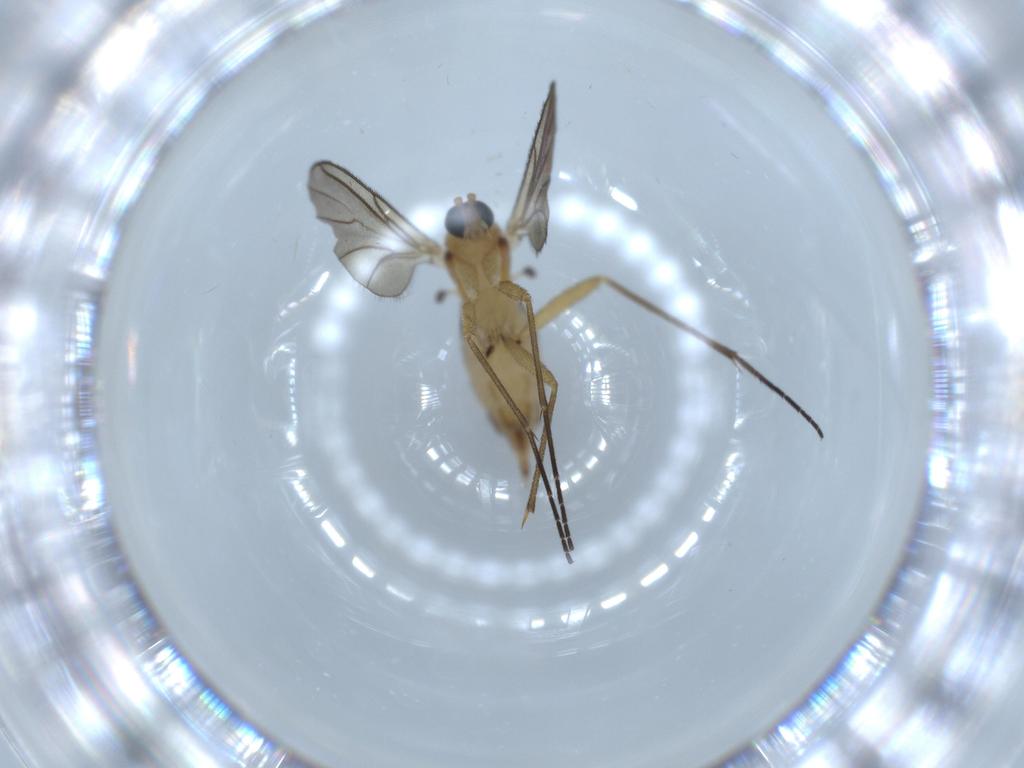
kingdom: Animalia
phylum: Arthropoda
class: Insecta
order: Diptera
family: Sciaridae
